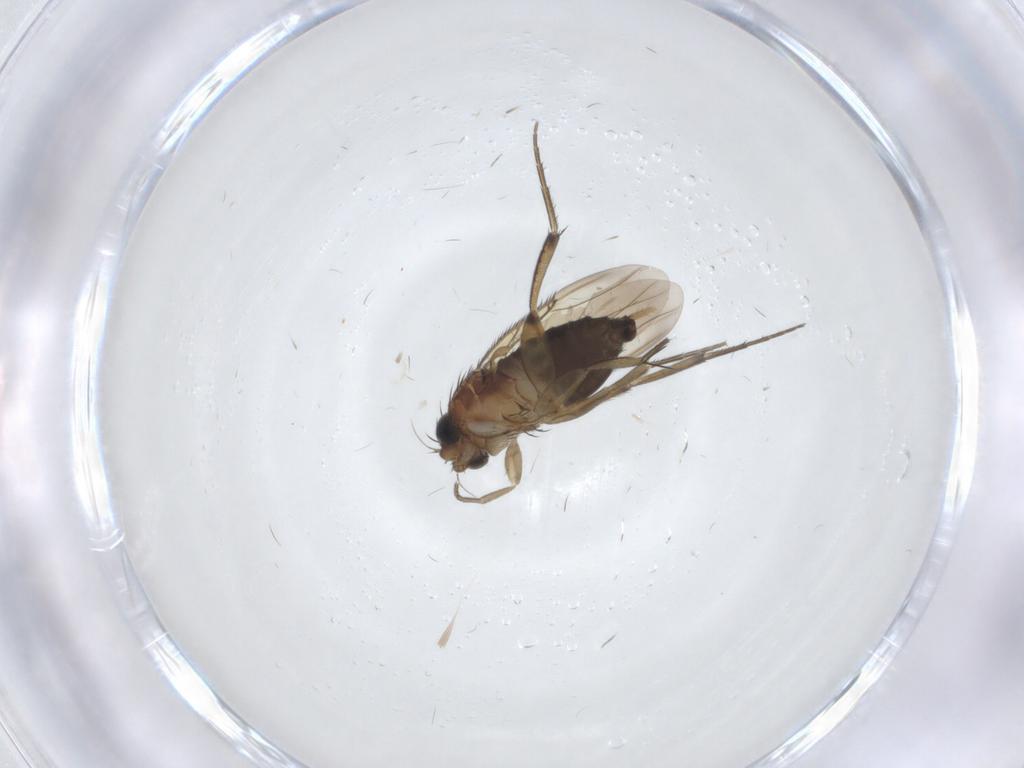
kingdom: Animalia
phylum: Arthropoda
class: Insecta
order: Diptera
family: Phoridae
